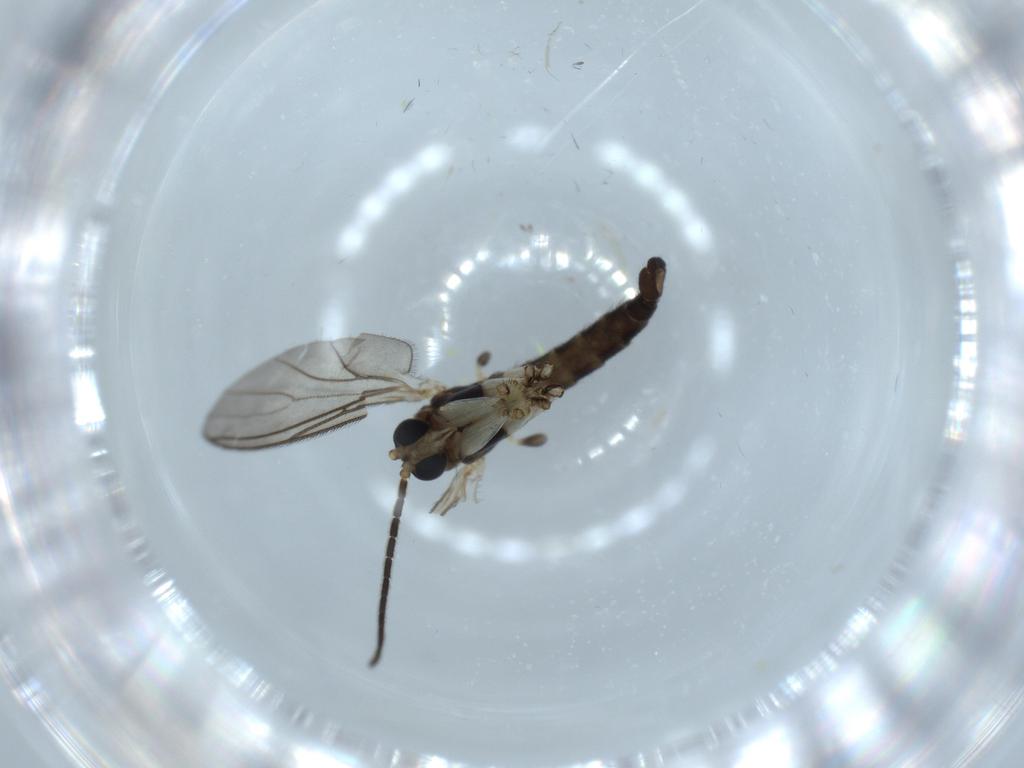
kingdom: Animalia
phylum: Arthropoda
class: Insecta
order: Diptera
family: Sciaridae
